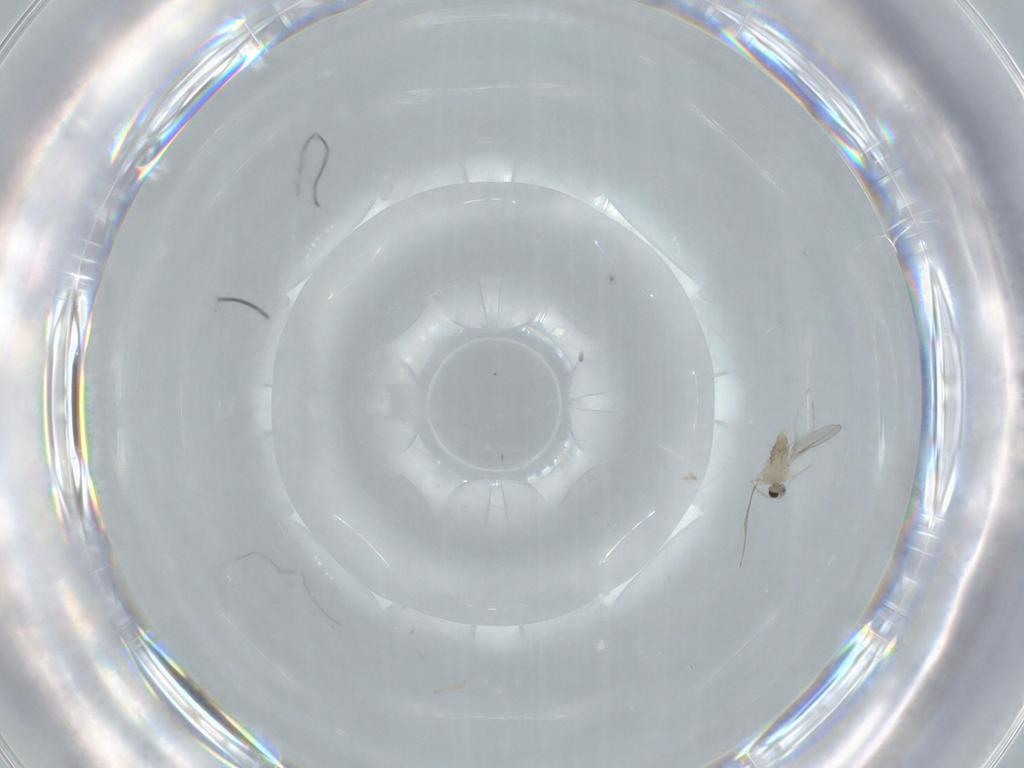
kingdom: Animalia
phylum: Arthropoda
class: Insecta
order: Diptera
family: Cecidomyiidae
